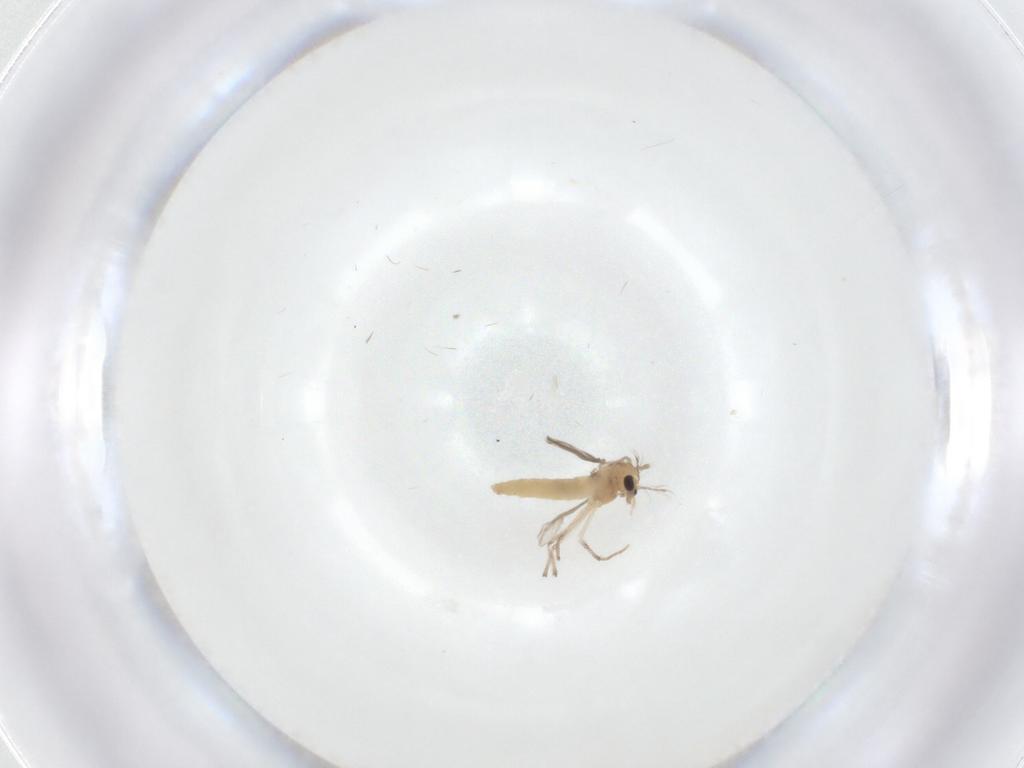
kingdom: Animalia
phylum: Arthropoda
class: Insecta
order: Diptera
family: Chironomidae
